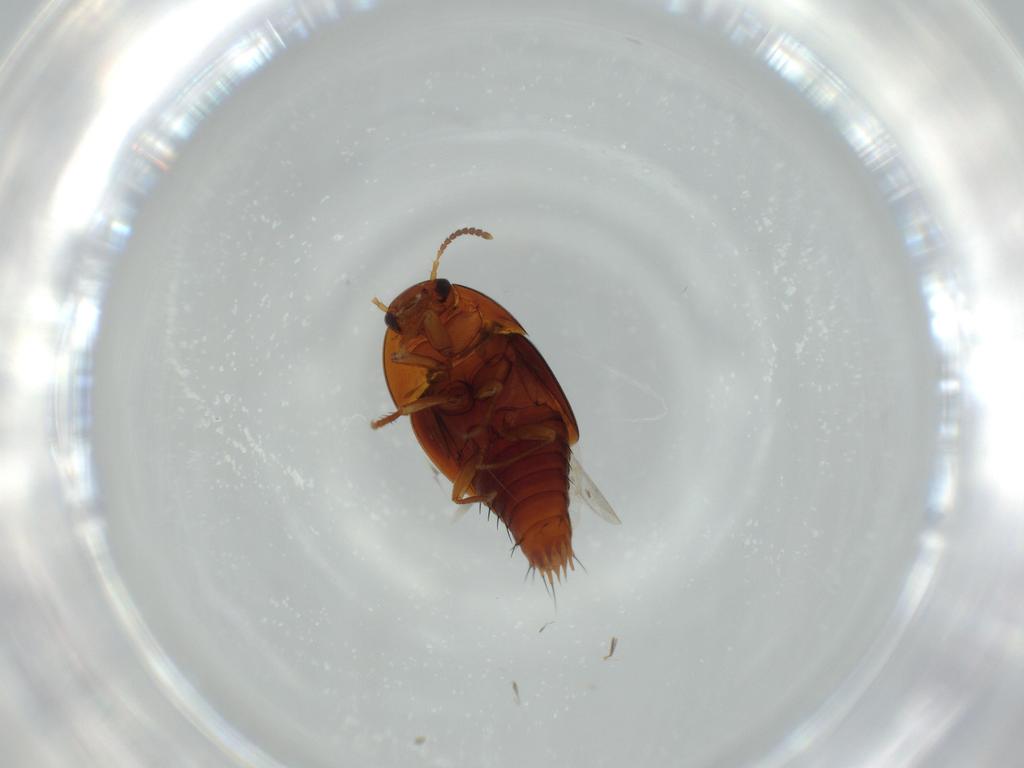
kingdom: Animalia
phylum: Arthropoda
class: Insecta
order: Coleoptera
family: Staphylinidae
